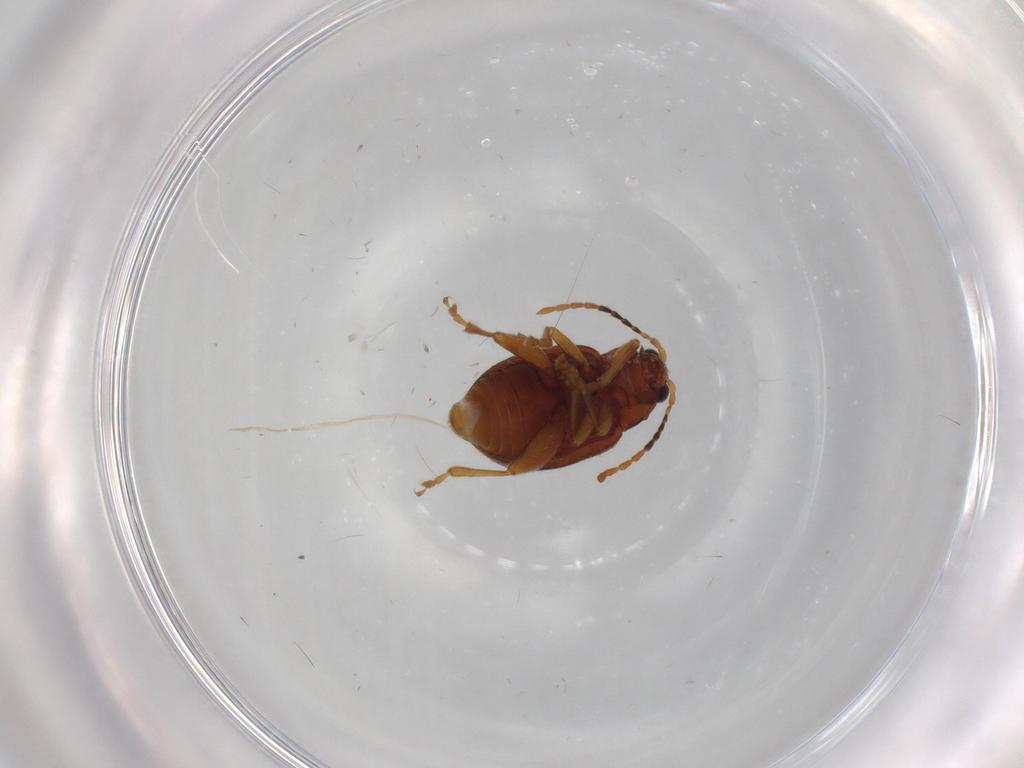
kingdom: Animalia
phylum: Arthropoda
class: Insecta
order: Coleoptera
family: Chrysomelidae
